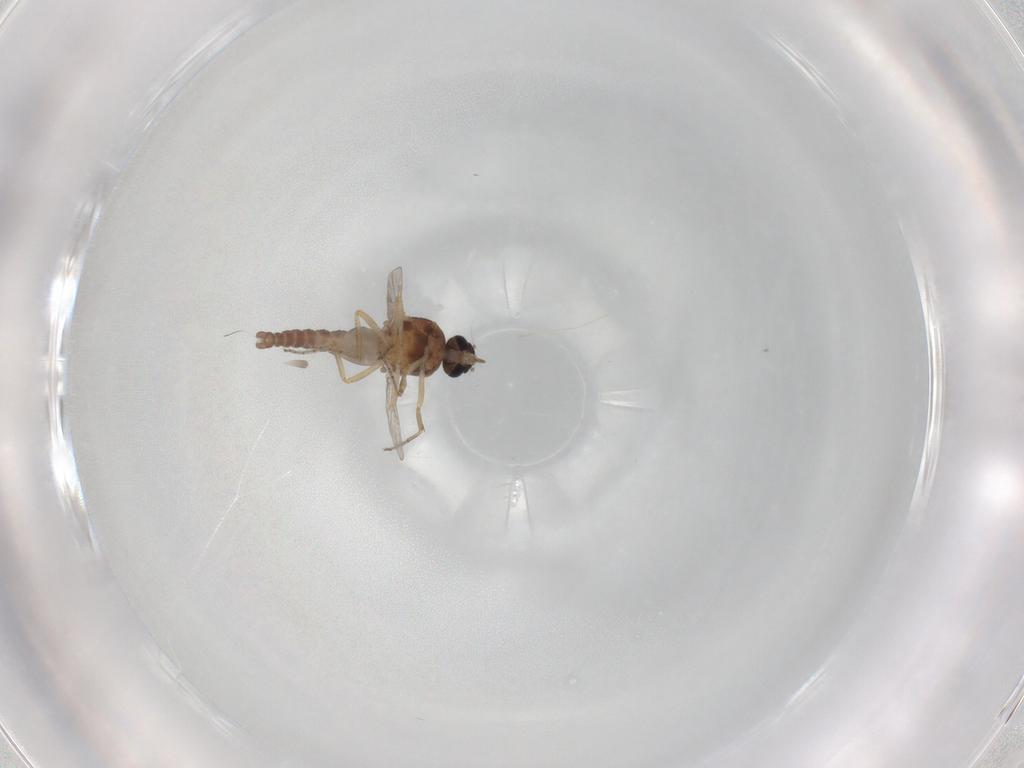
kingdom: Animalia
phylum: Arthropoda
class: Insecta
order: Diptera
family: Ceratopogonidae
